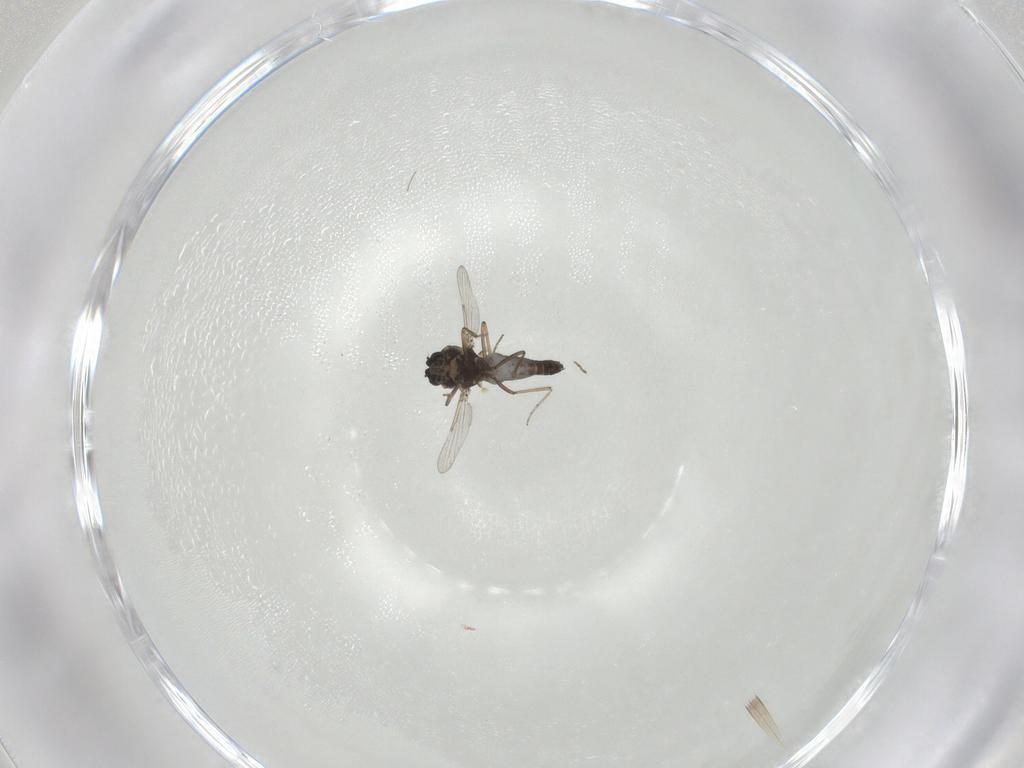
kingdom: Animalia
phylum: Arthropoda
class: Insecta
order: Diptera
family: Ceratopogonidae
